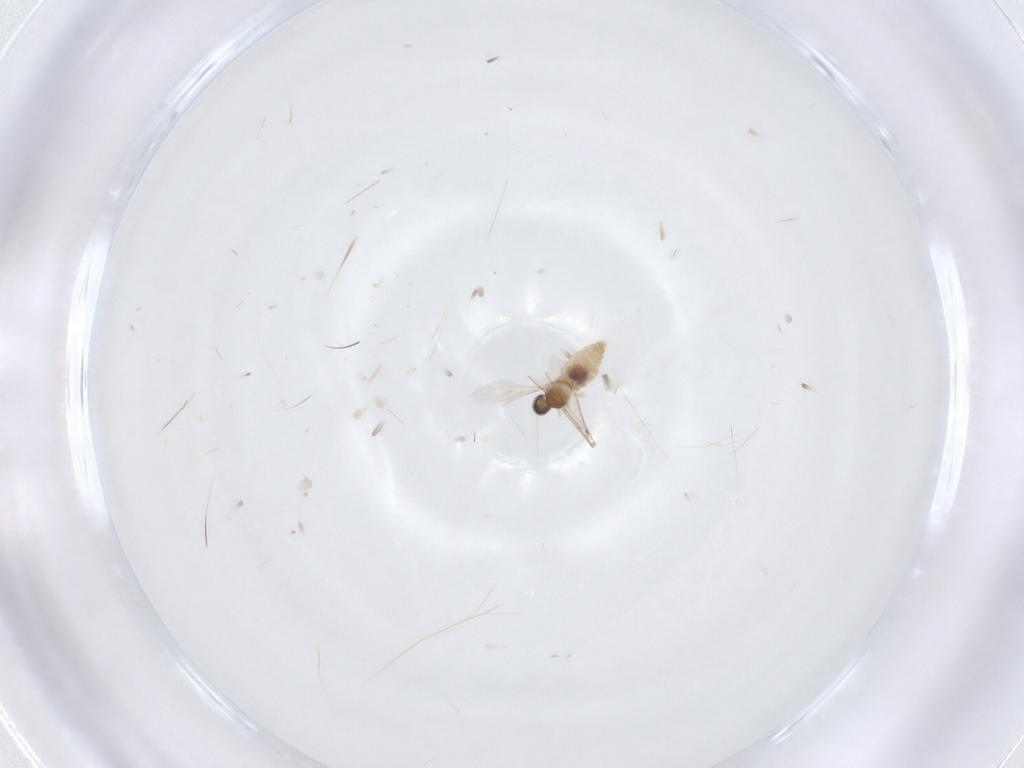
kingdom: Animalia
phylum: Arthropoda
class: Insecta
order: Diptera
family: Cecidomyiidae
